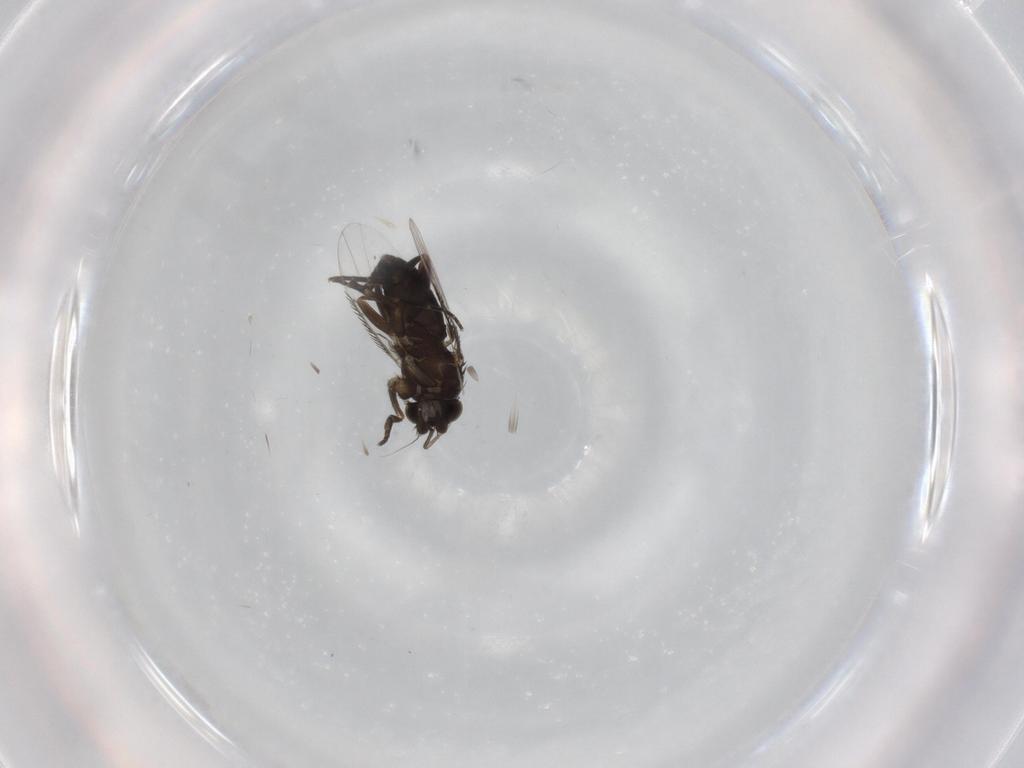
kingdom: Animalia
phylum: Arthropoda
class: Insecta
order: Diptera
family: Phoridae
